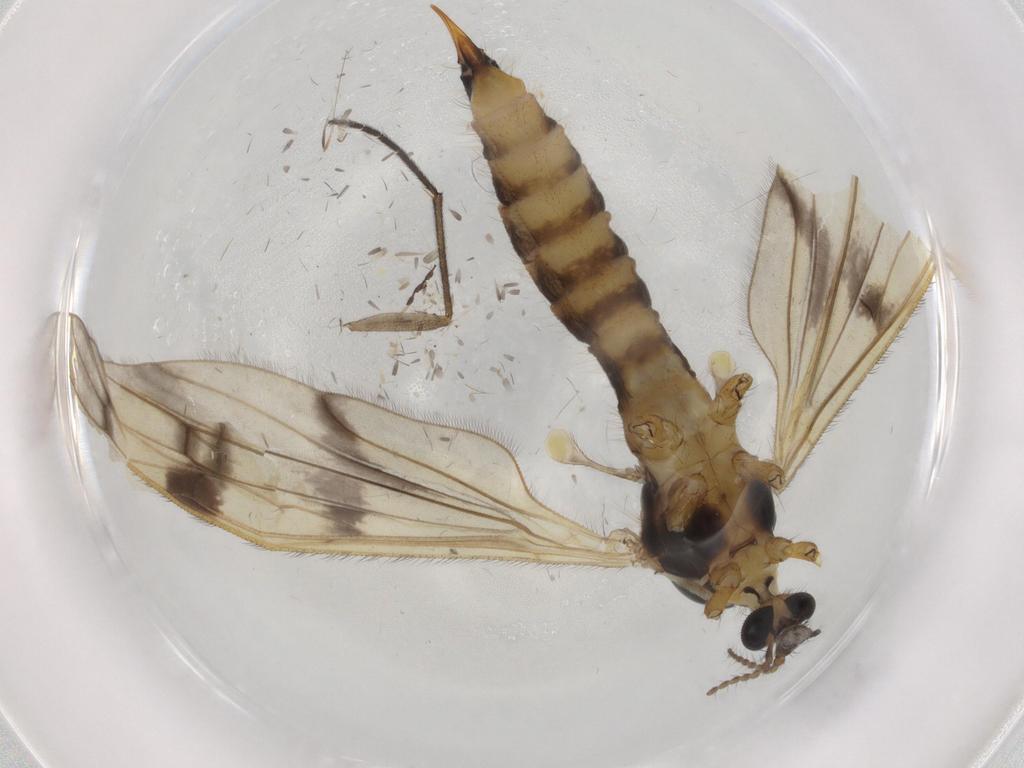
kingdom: Animalia
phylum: Arthropoda
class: Insecta
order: Diptera
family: Limoniidae
